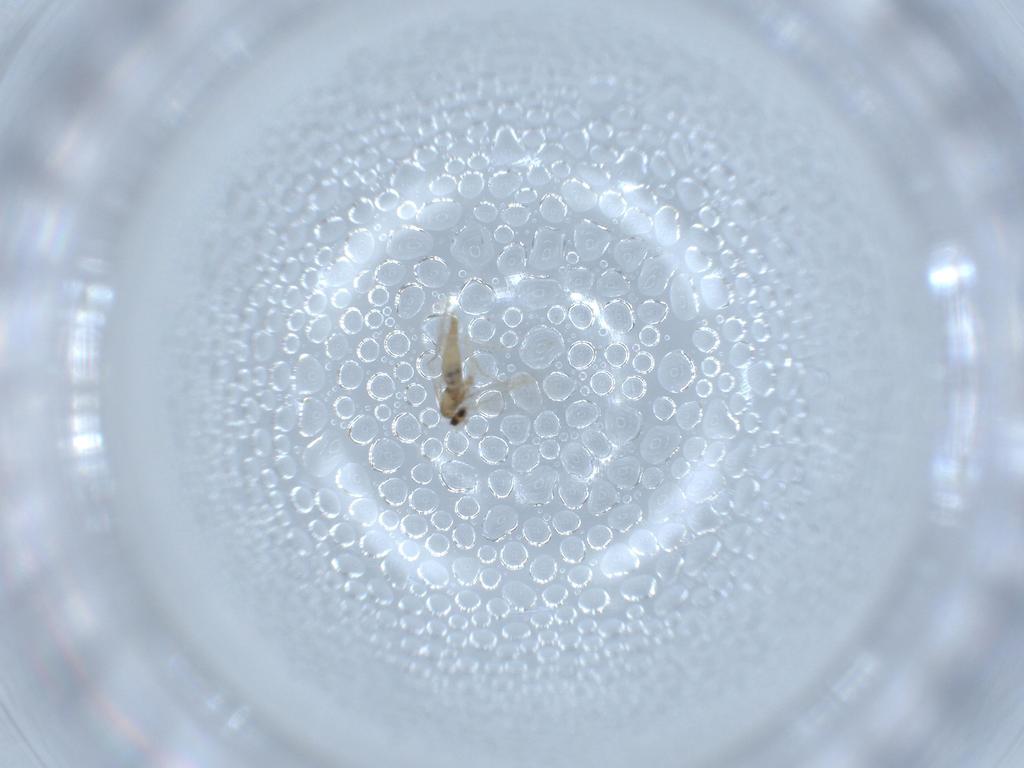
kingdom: Animalia
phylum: Arthropoda
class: Insecta
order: Diptera
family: Cecidomyiidae
